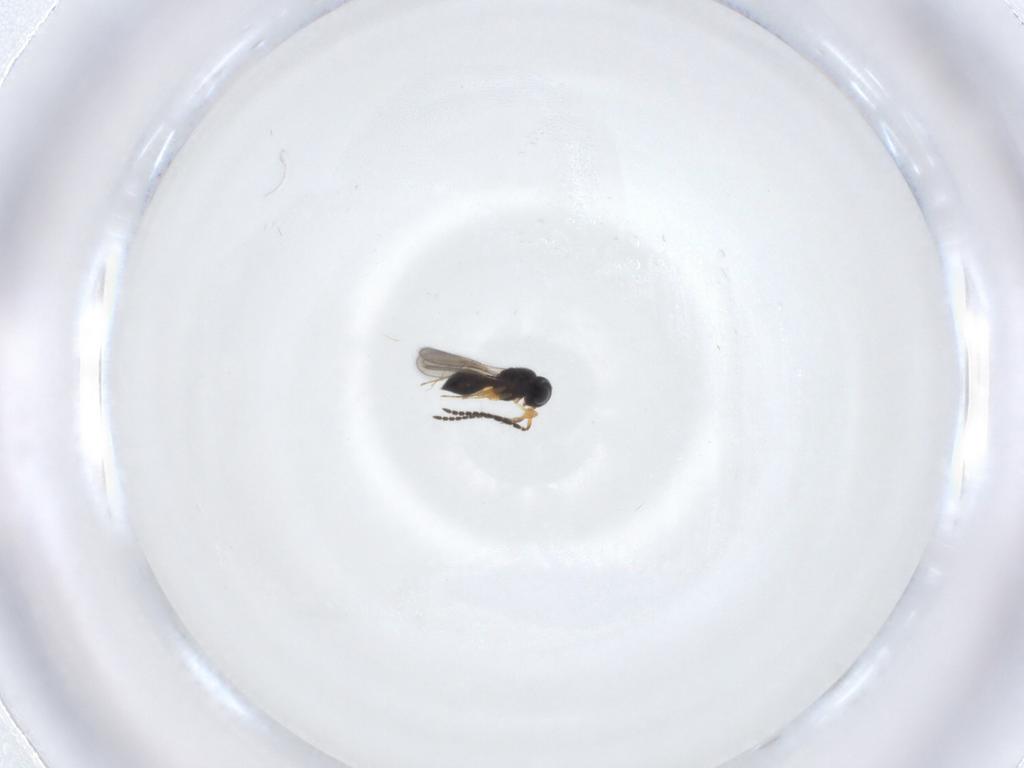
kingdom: Animalia
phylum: Arthropoda
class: Insecta
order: Hymenoptera
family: Scelionidae
